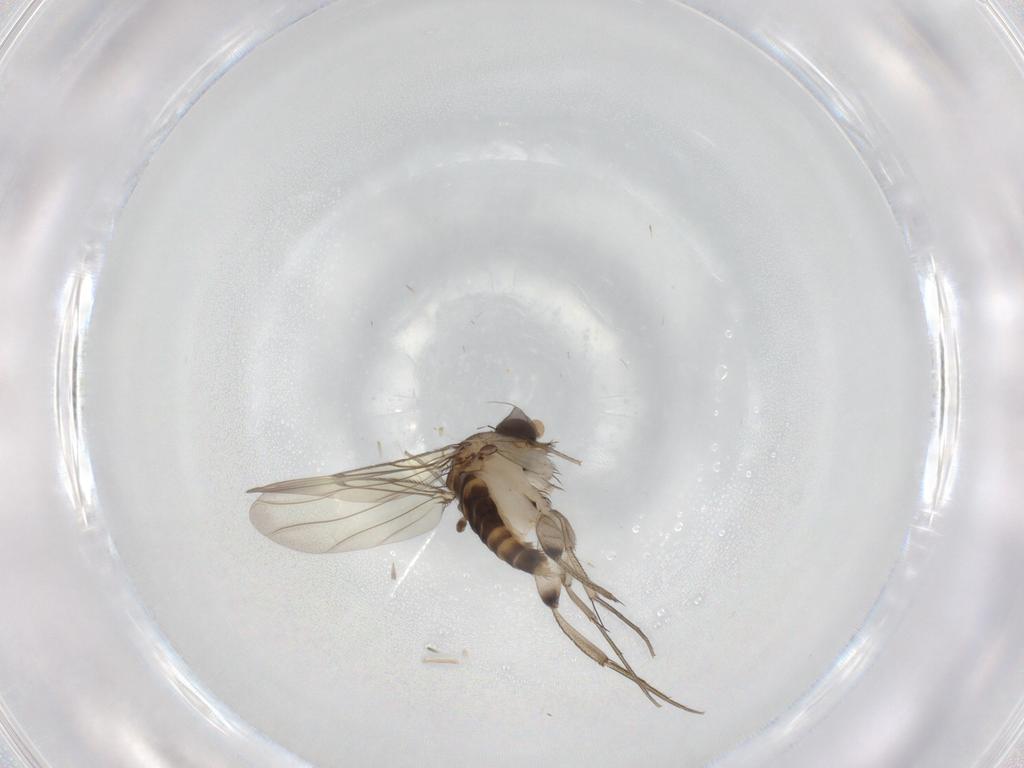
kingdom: Animalia
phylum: Arthropoda
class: Insecta
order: Diptera
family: Phoridae
